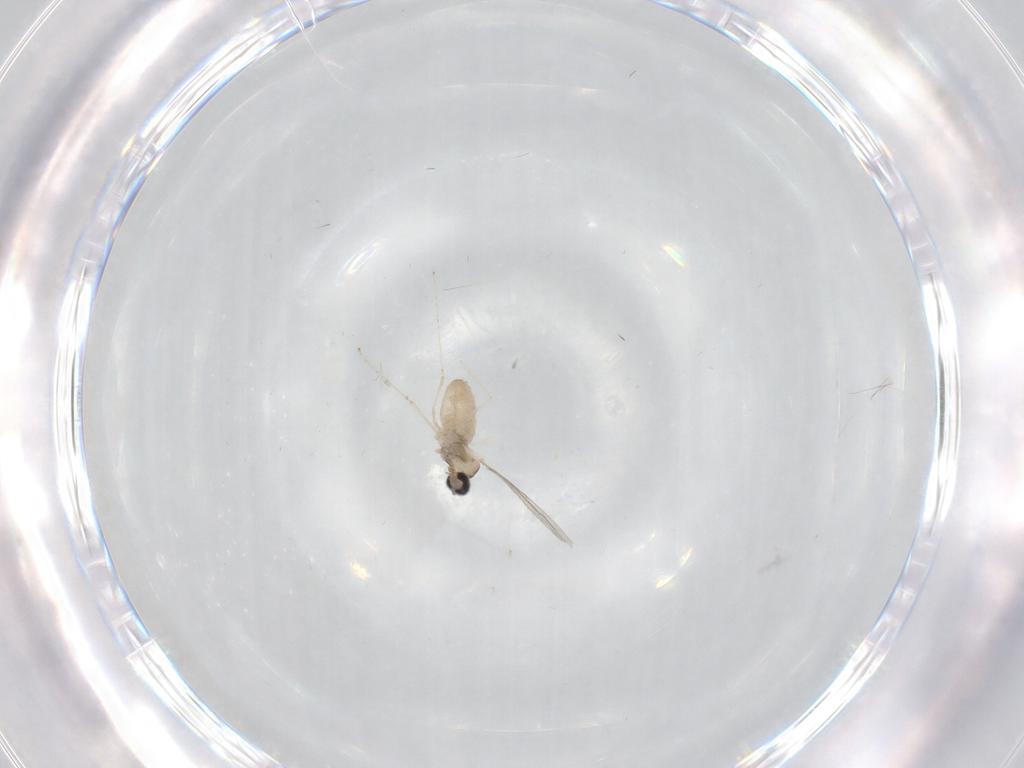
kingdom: Animalia
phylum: Arthropoda
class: Insecta
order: Diptera
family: Cecidomyiidae
